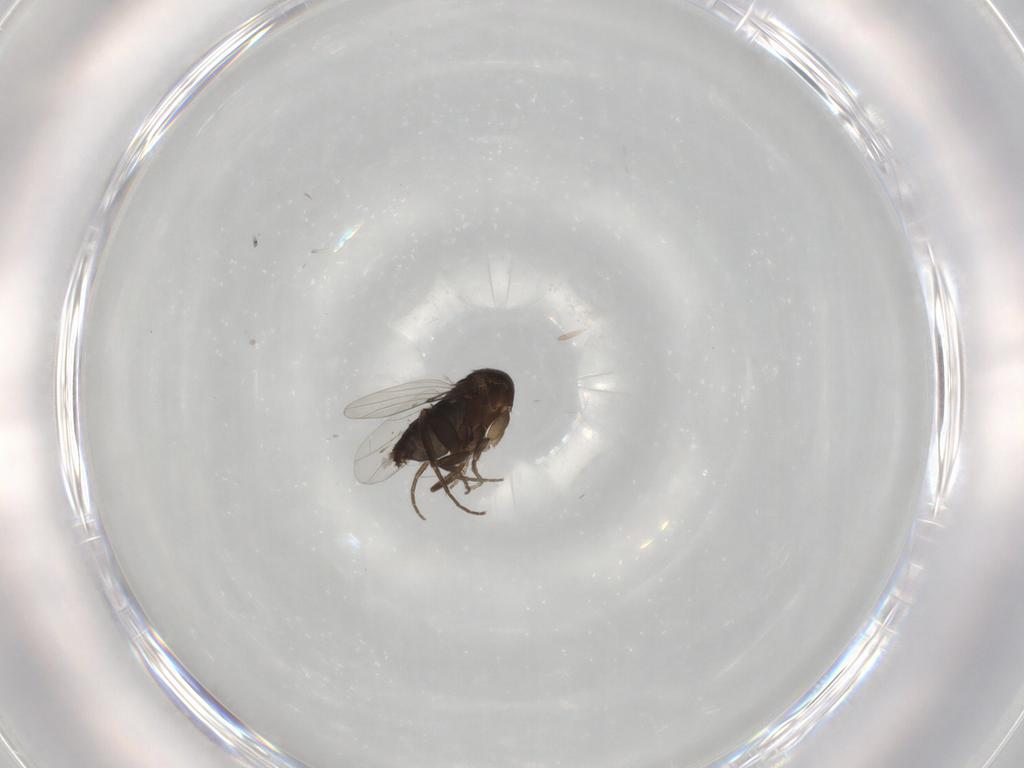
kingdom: Animalia
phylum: Arthropoda
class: Insecta
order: Diptera
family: Phoridae
